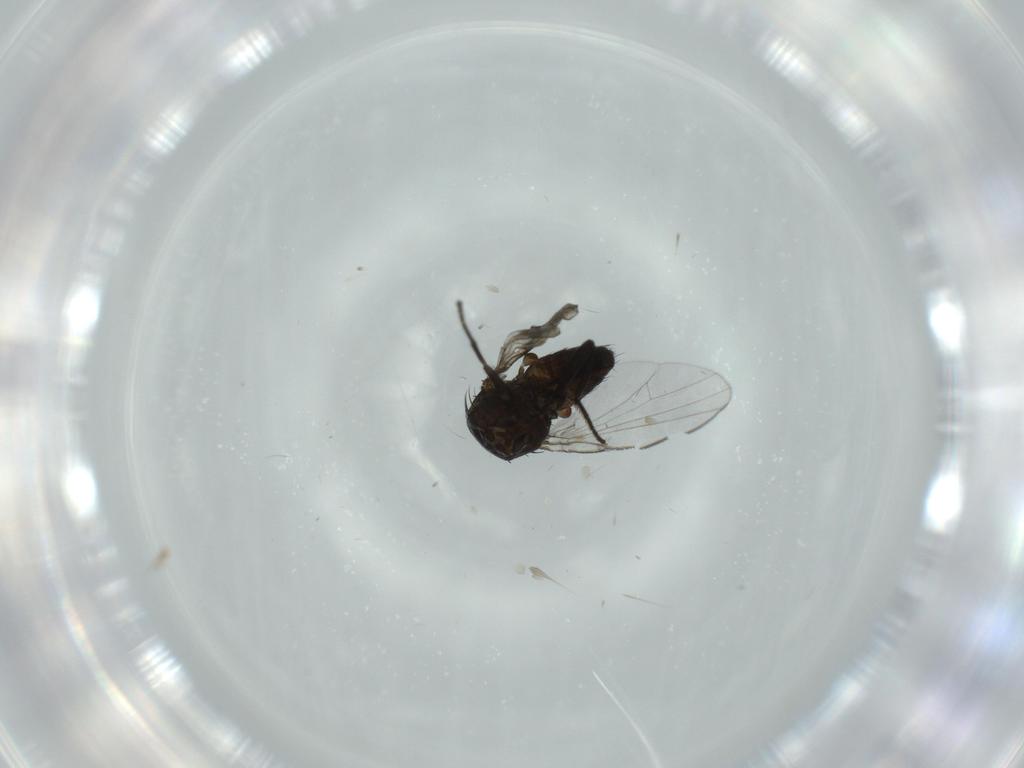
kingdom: Animalia
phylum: Arthropoda
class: Insecta
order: Diptera
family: Milichiidae
